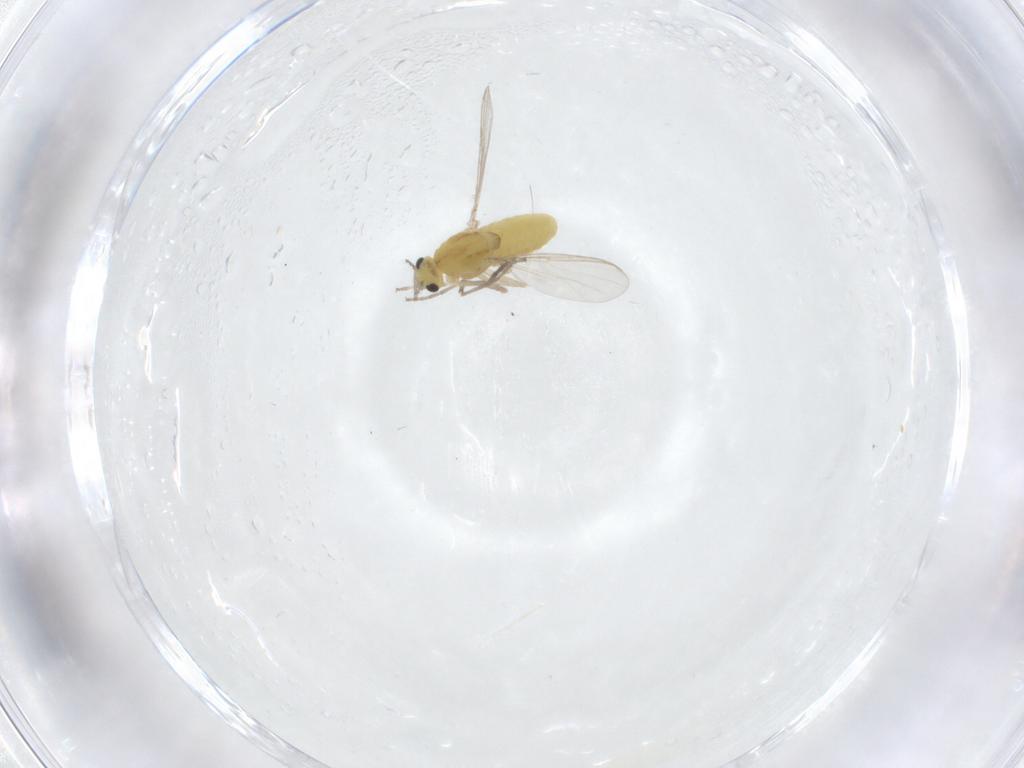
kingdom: Animalia
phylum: Arthropoda
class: Insecta
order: Diptera
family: Chironomidae
